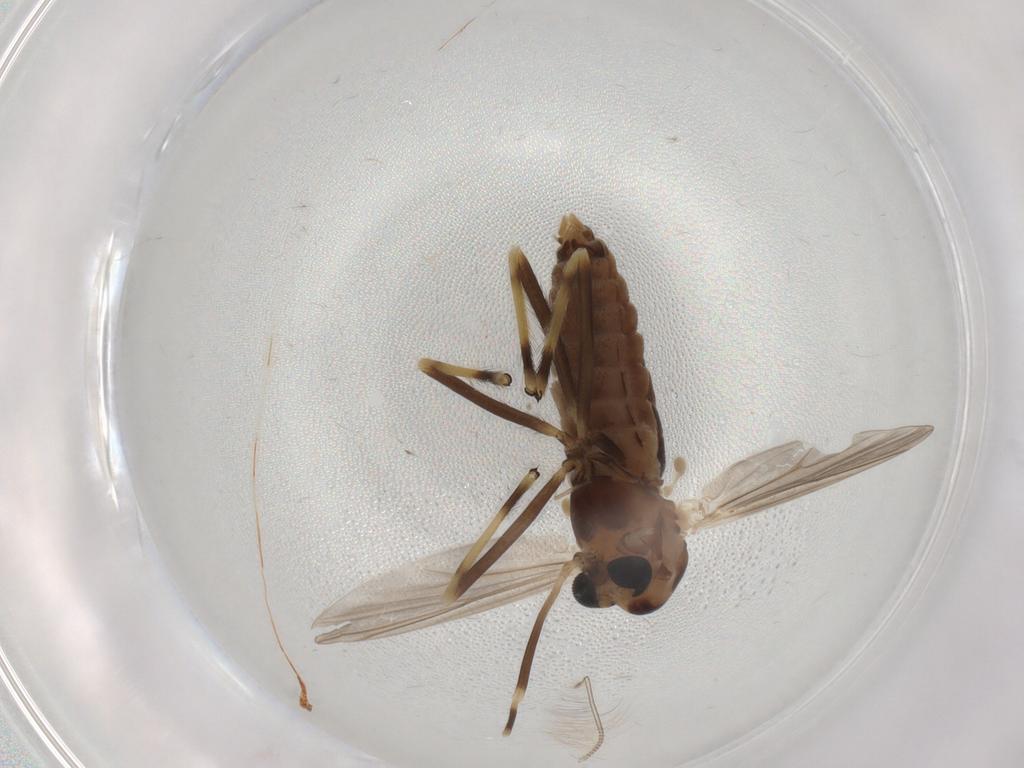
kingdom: Animalia
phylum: Arthropoda
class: Insecta
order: Diptera
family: Chironomidae
